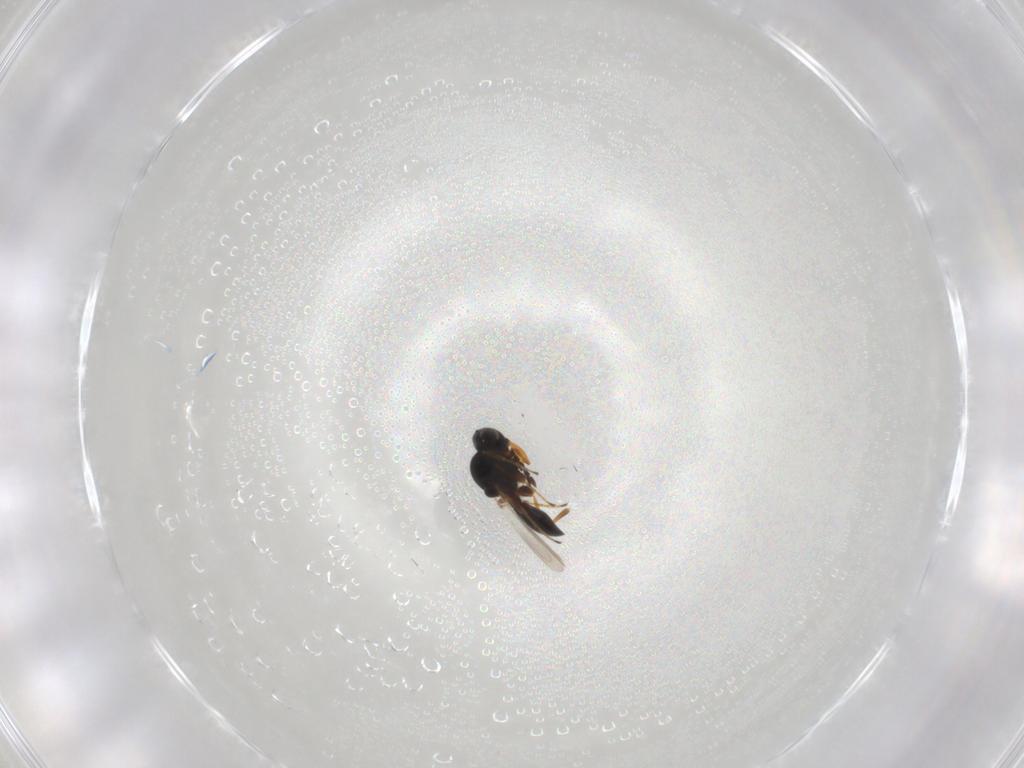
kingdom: Animalia
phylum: Arthropoda
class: Insecta
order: Hymenoptera
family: Platygastridae
